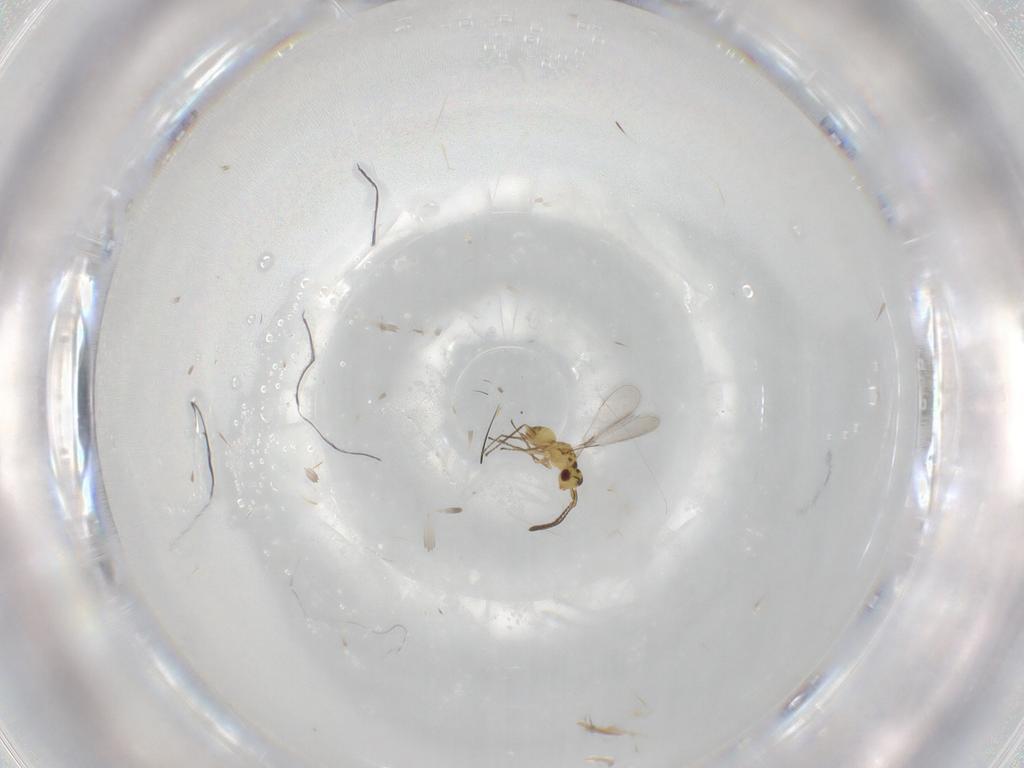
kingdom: Animalia
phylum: Arthropoda
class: Insecta
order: Hymenoptera
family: Mymaridae
